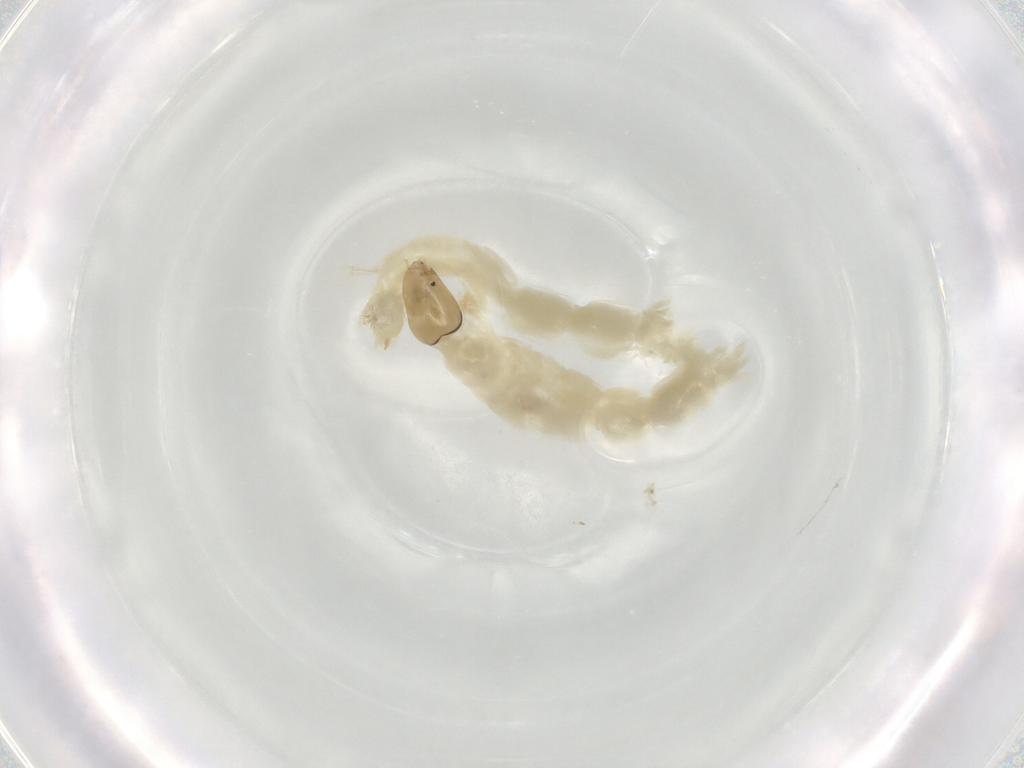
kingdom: Animalia
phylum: Arthropoda
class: Insecta
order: Diptera
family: Chironomidae
